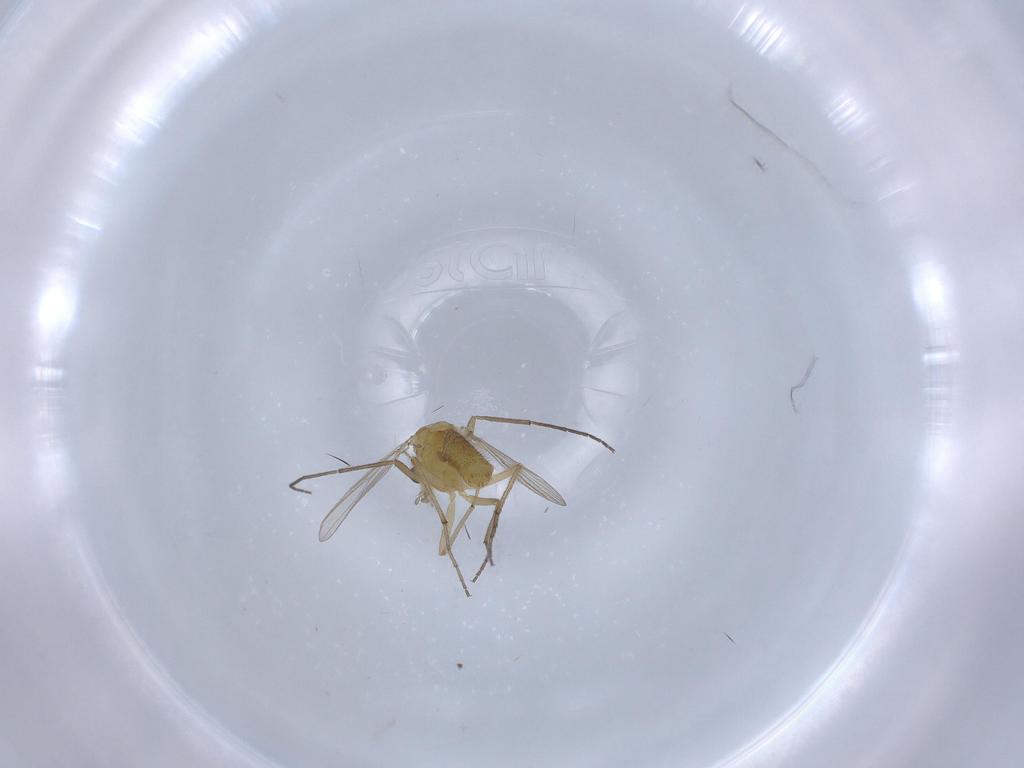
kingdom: Animalia
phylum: Arthropoda
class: Insecta
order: Diptera
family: Chironomidae
